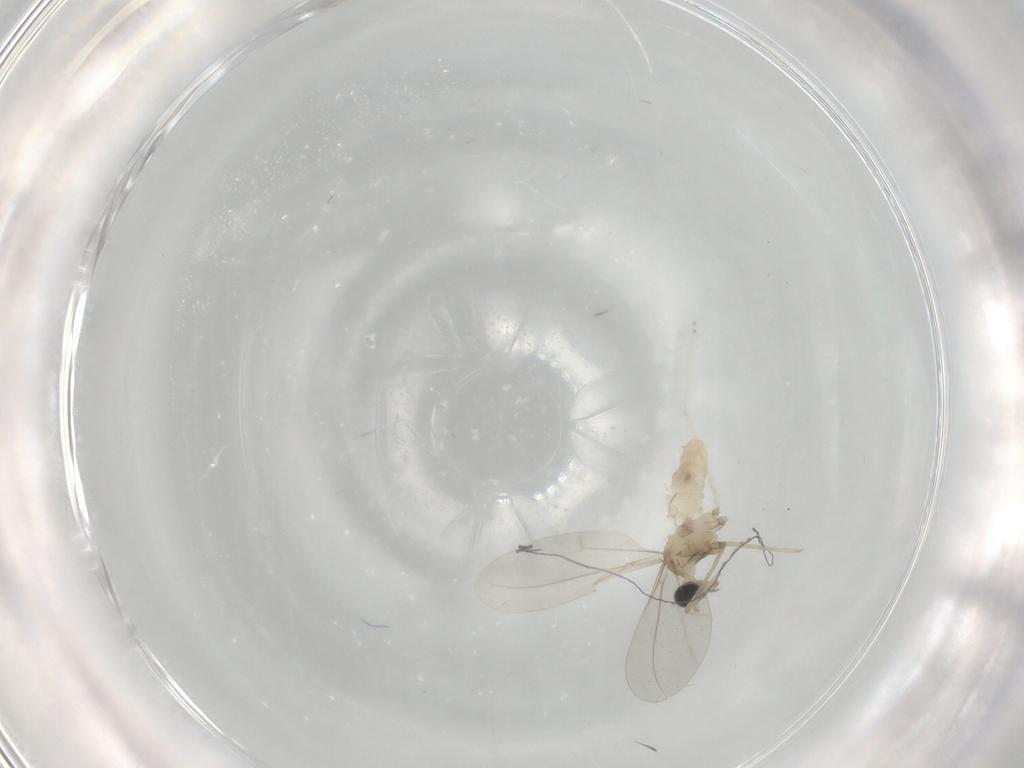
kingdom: Animalia
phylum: Arthropoda
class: Insecta
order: Diptera
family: Cecidomyiidae
